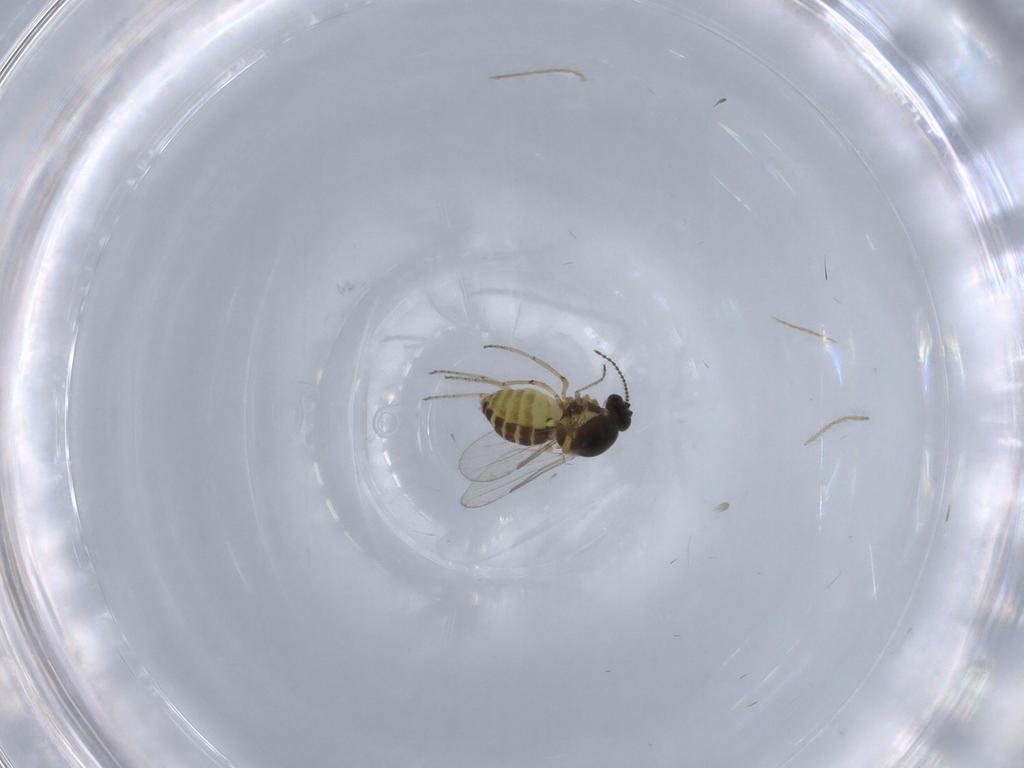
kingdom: Animalia
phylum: Arthropoda
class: Insecta
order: Diptera
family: Ceratopogonidae
